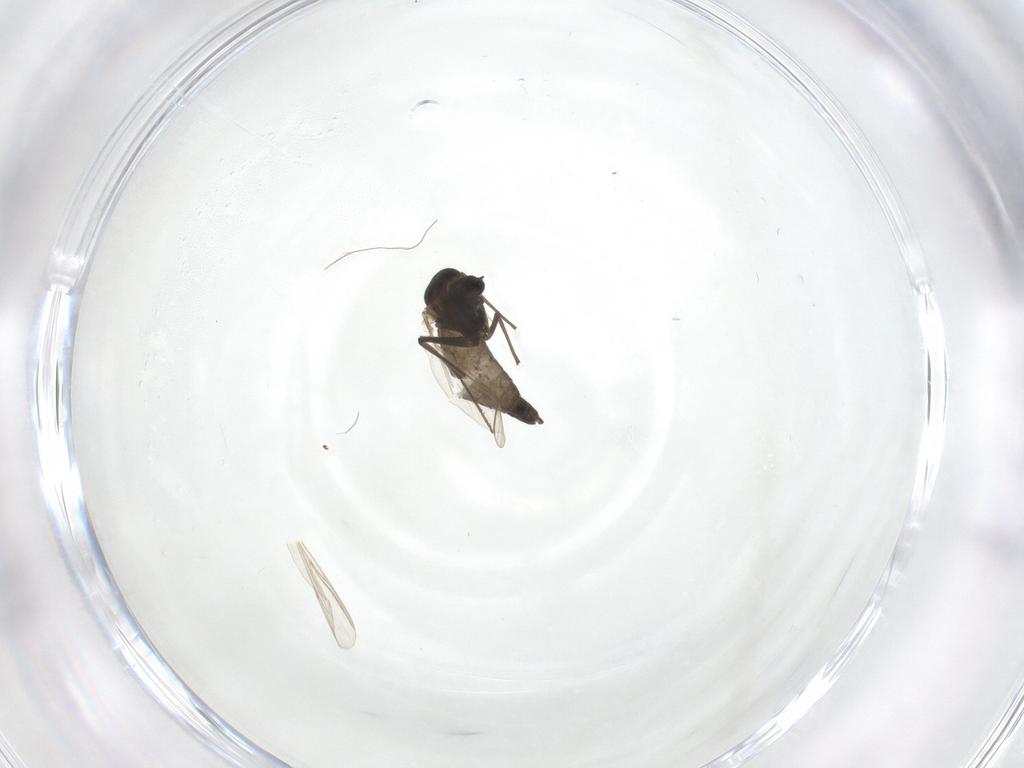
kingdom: Animalia
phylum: Arthropoda
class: Insecta
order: Diptera
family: Chironomidae
